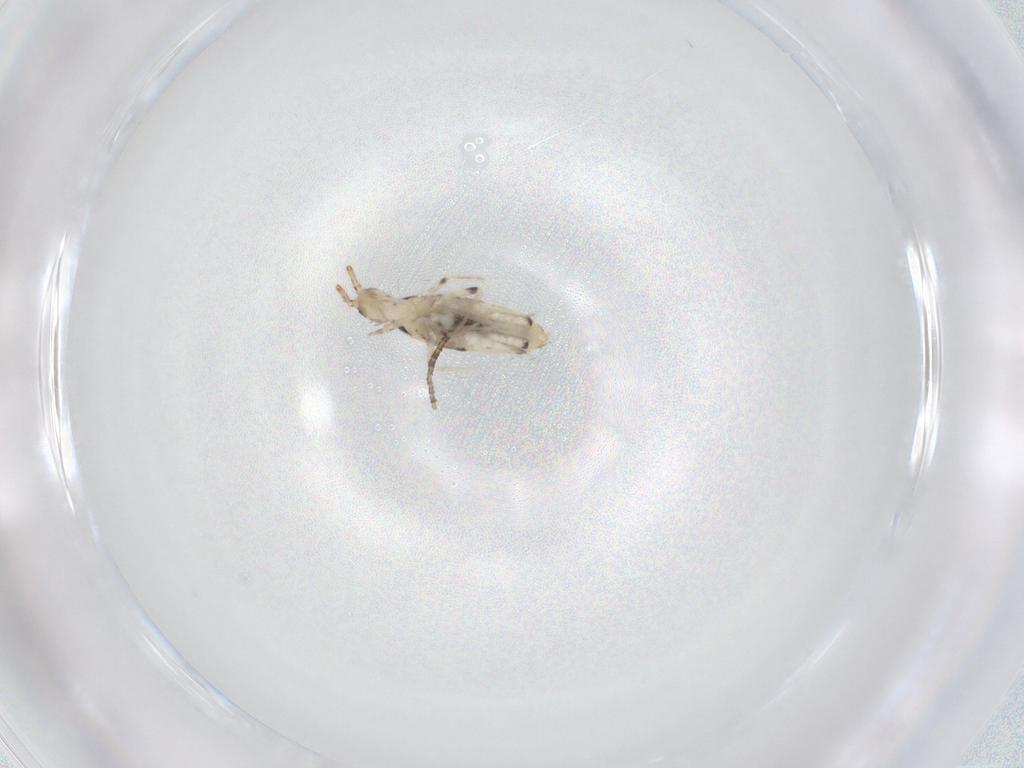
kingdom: Animalia
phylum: Arthropoda
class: Collembola
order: Entomobryomorpha
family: Entomobryidae
